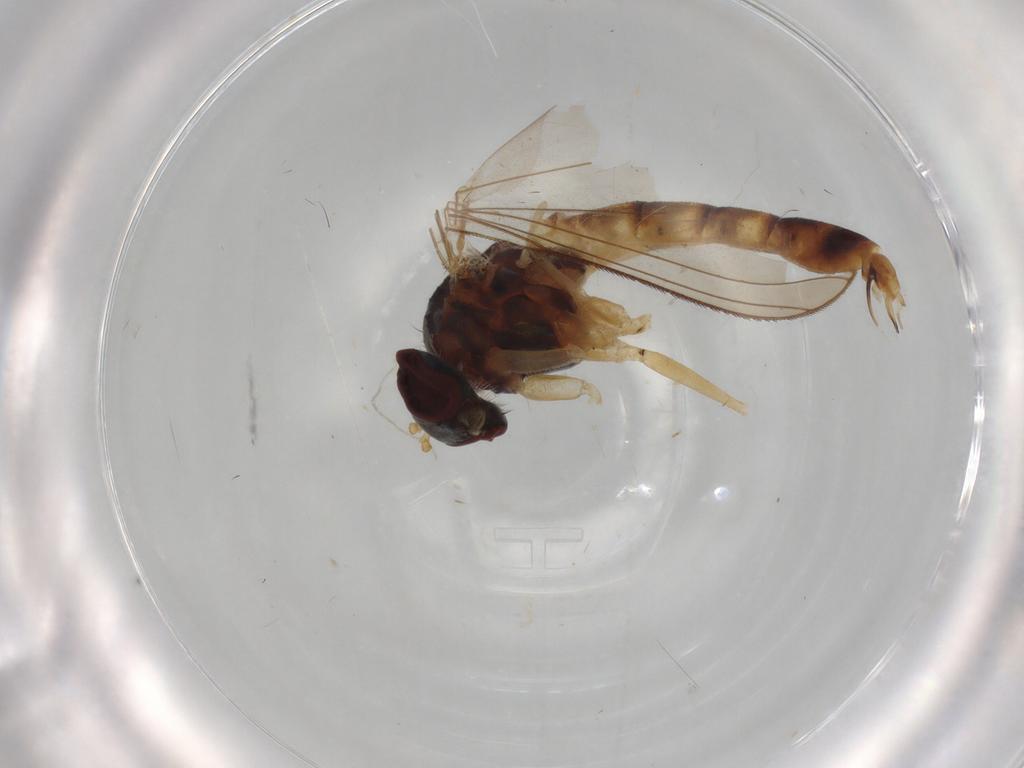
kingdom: Animalia
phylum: Arthropoda
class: Insecta
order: Diptera
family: Dolichopodidae
